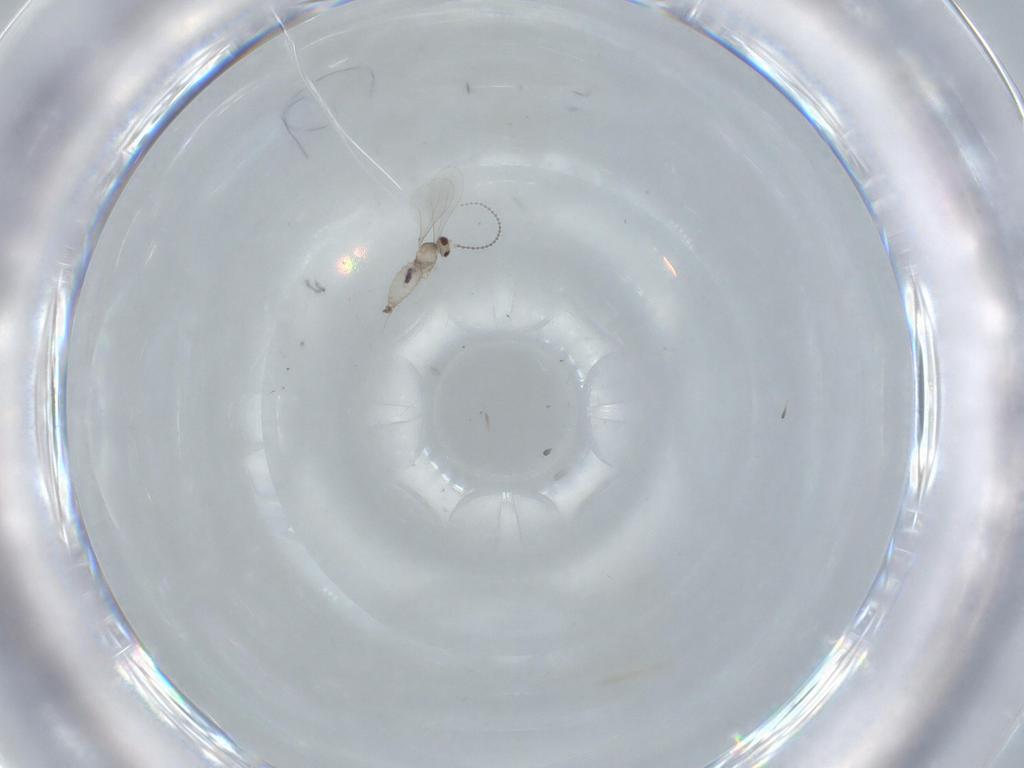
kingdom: Animalia
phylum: Arthropoda
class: Insecta
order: Diptera
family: Cecidomyiidae
